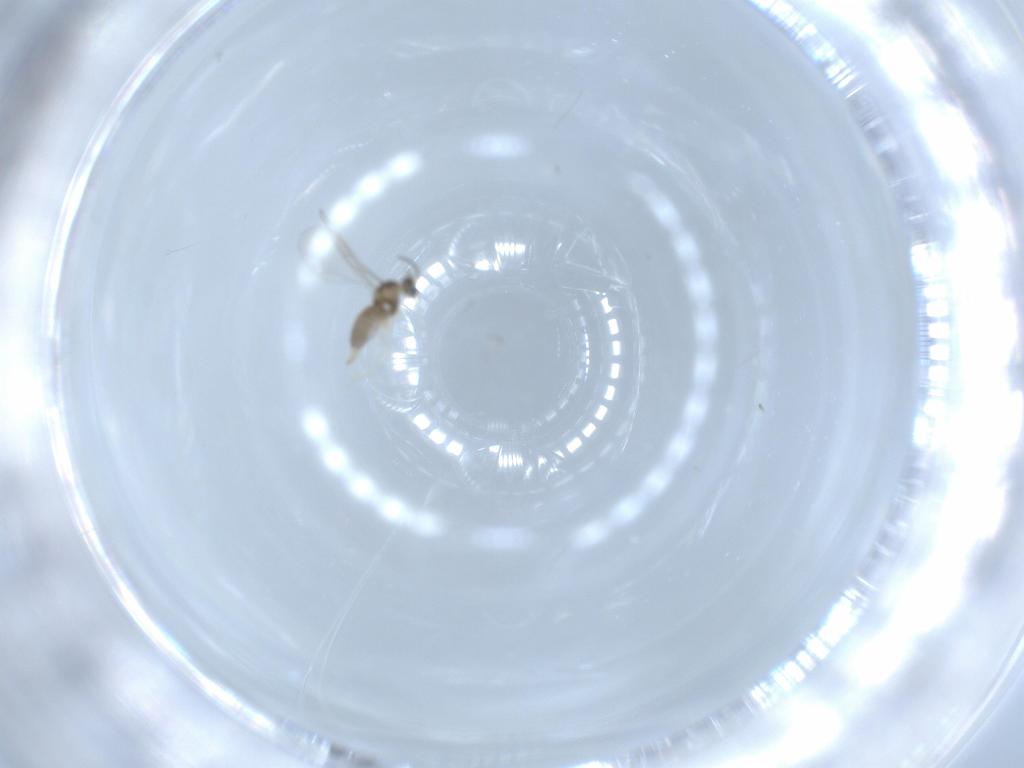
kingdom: Animalia
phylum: Arthropoda
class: Insecta
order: Diptera
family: Cecidomyiidae
